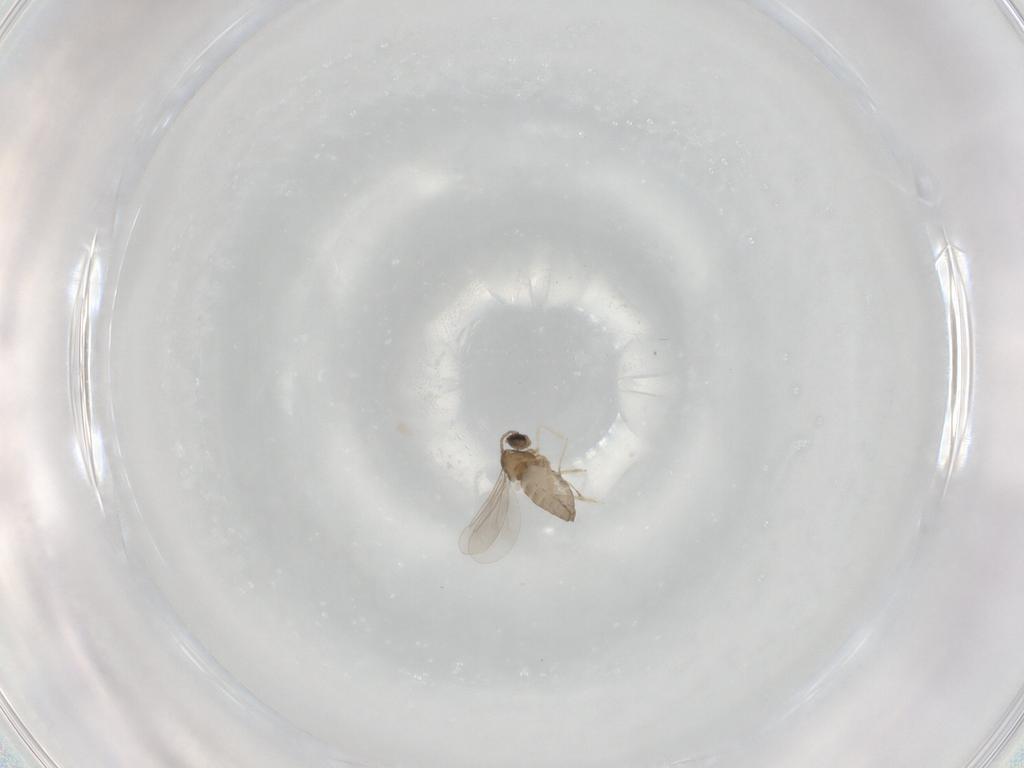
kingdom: Animalia
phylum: Arthropoda
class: Insecta
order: Diptera
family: Cecidomyiidae
